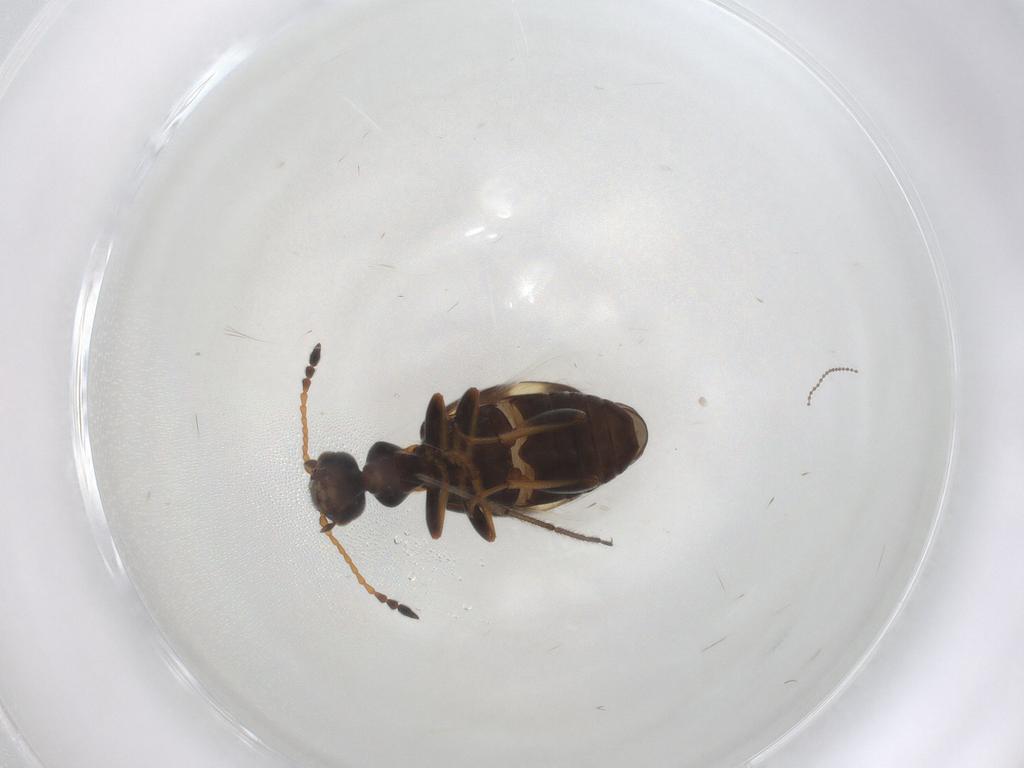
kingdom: Animalia
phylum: Arthropoda
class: Insecta
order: Coleoptera
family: Anthicidae
